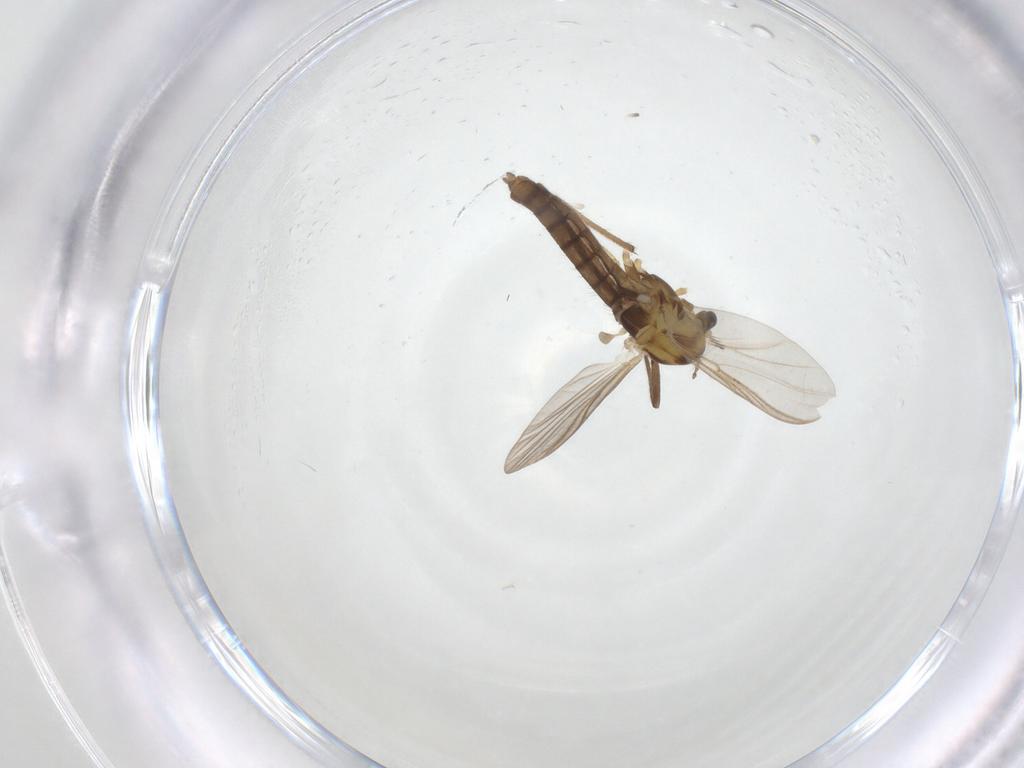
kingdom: Animalia
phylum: Arthropoda
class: Insecta
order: Diptera
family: Chironomidae
